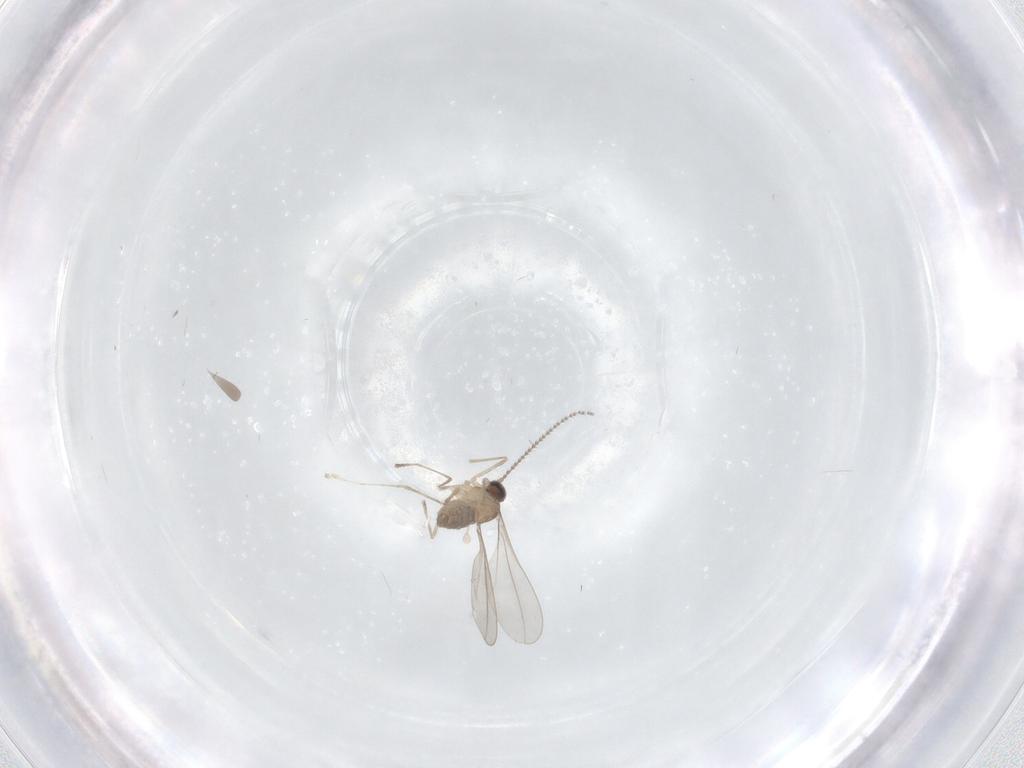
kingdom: Animalia
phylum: Arthropoda
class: Insecta
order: Diptera
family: Cecidomyiidae
